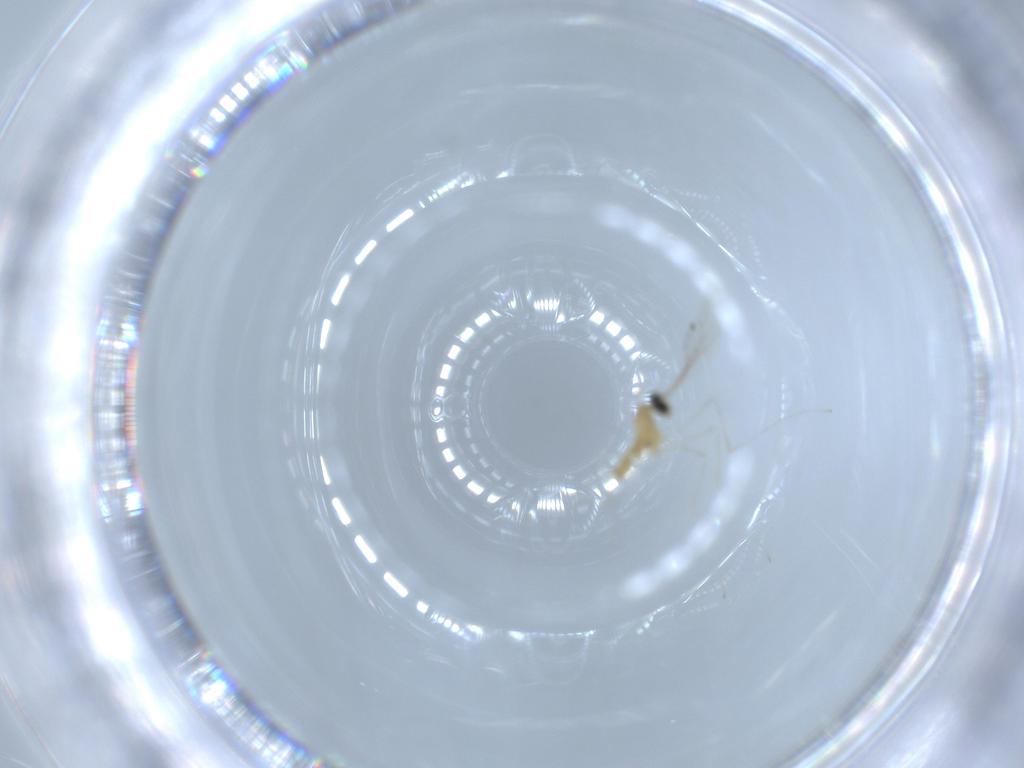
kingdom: Animalia
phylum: Arthropoda
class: Insecta
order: Diptera
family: Cecidomyiidae
